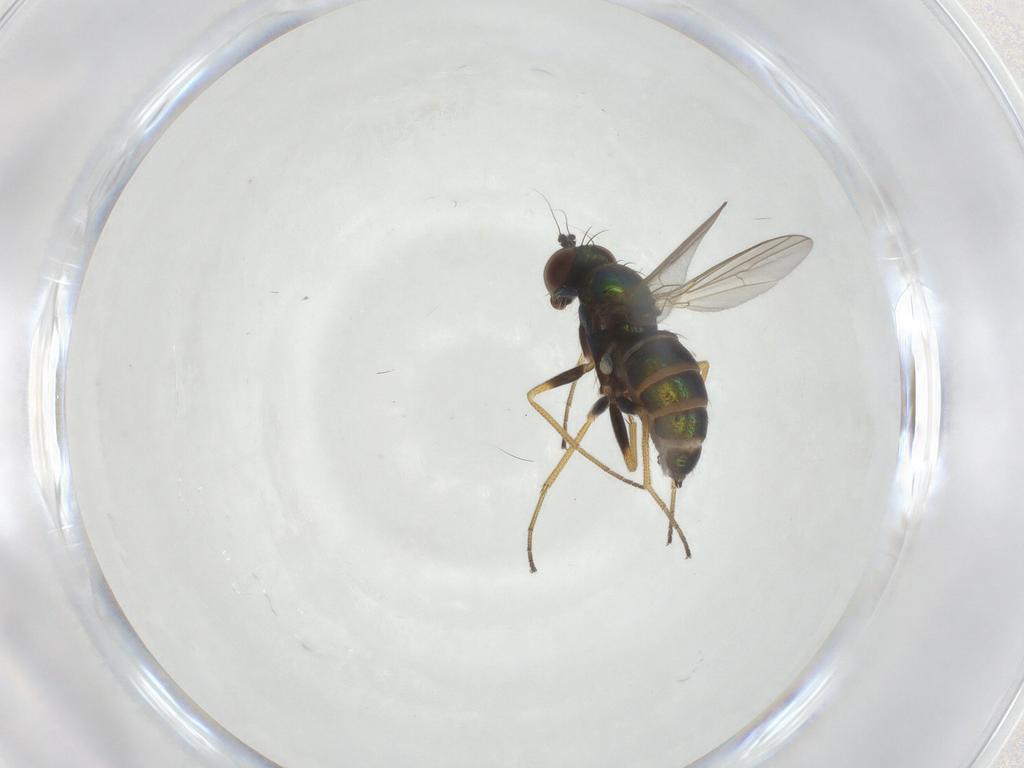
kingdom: Animalia
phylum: Arthropoda
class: Insecta
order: Diptera
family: Dolichopodidae
